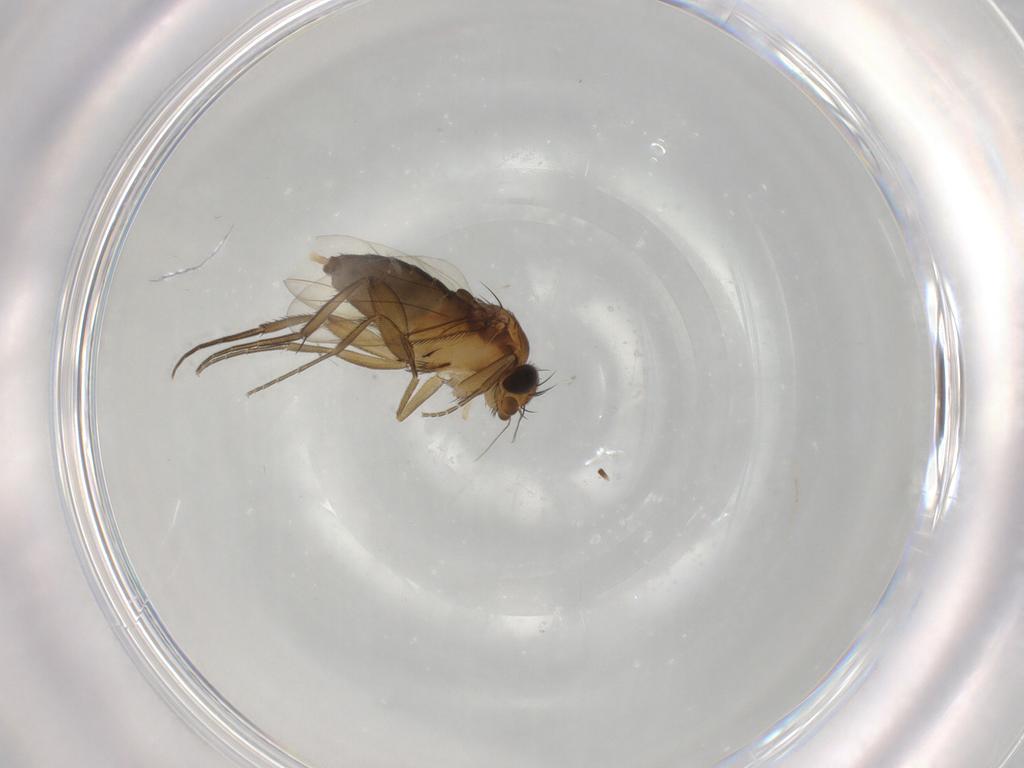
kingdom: Animalia
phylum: Arthropoda
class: Insecta
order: Diptera
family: Phoridae
